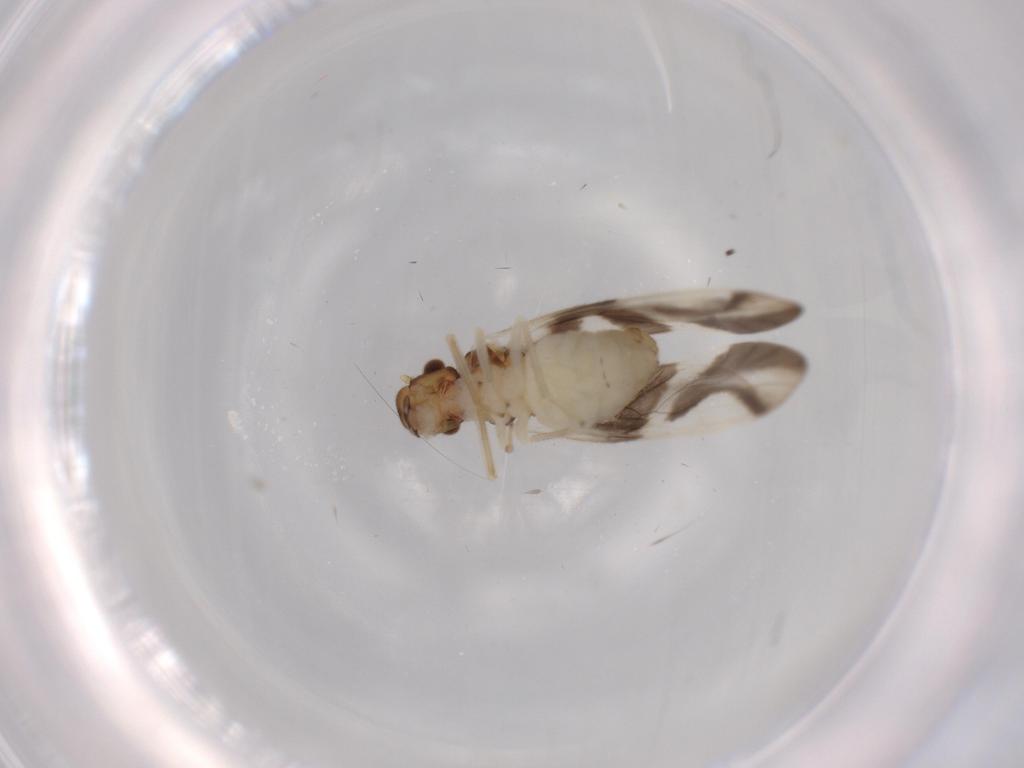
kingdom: Animalia
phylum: Arthropoda
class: Insecta
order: Psocodea
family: Caeciliusidae
